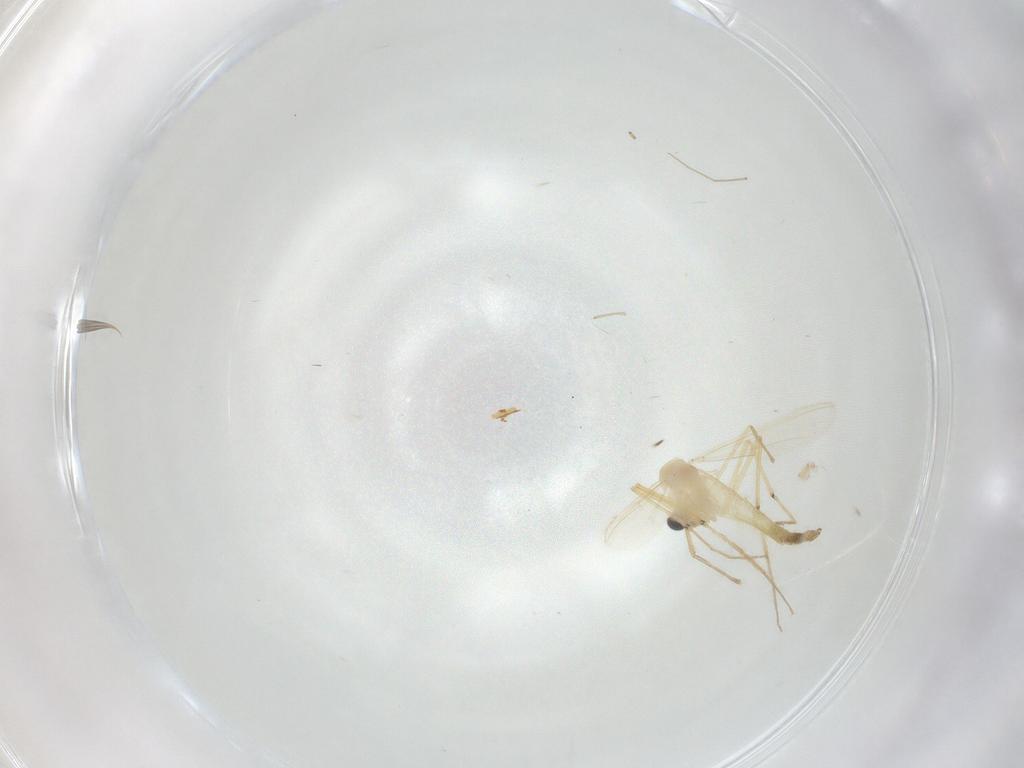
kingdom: Animalia
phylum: Arthropoda
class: Insecta
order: Diptera
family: Chironomidae
